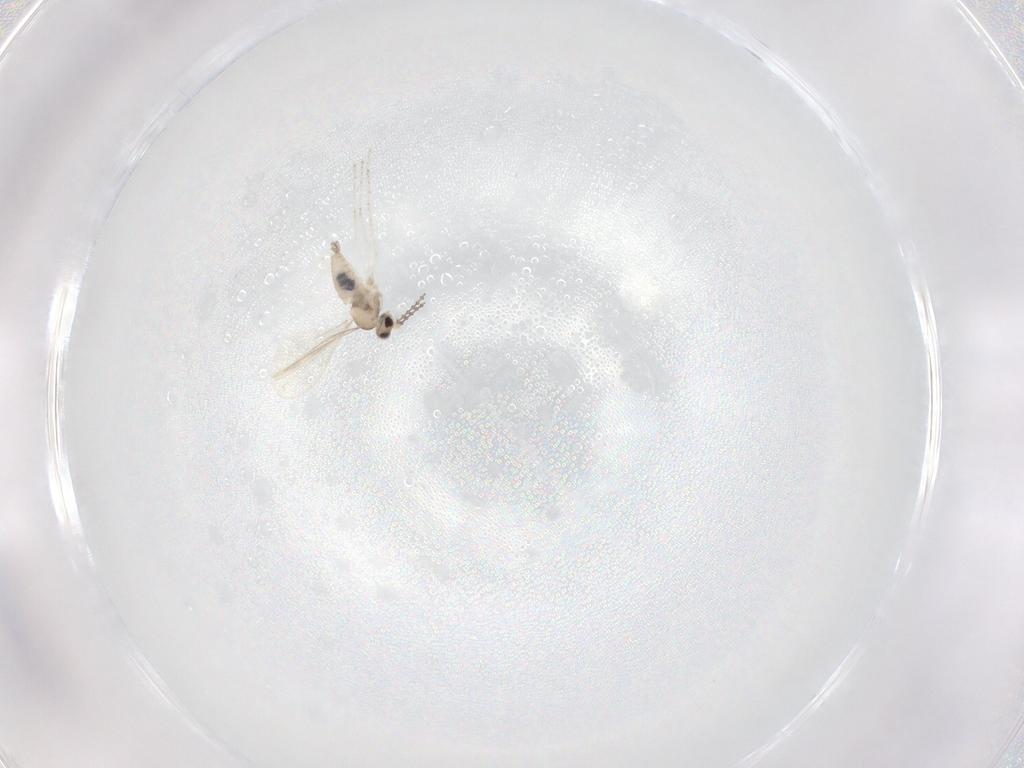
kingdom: Animalia
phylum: Arthropoda
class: Insecta
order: Diptera
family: Cecidomyiidae
